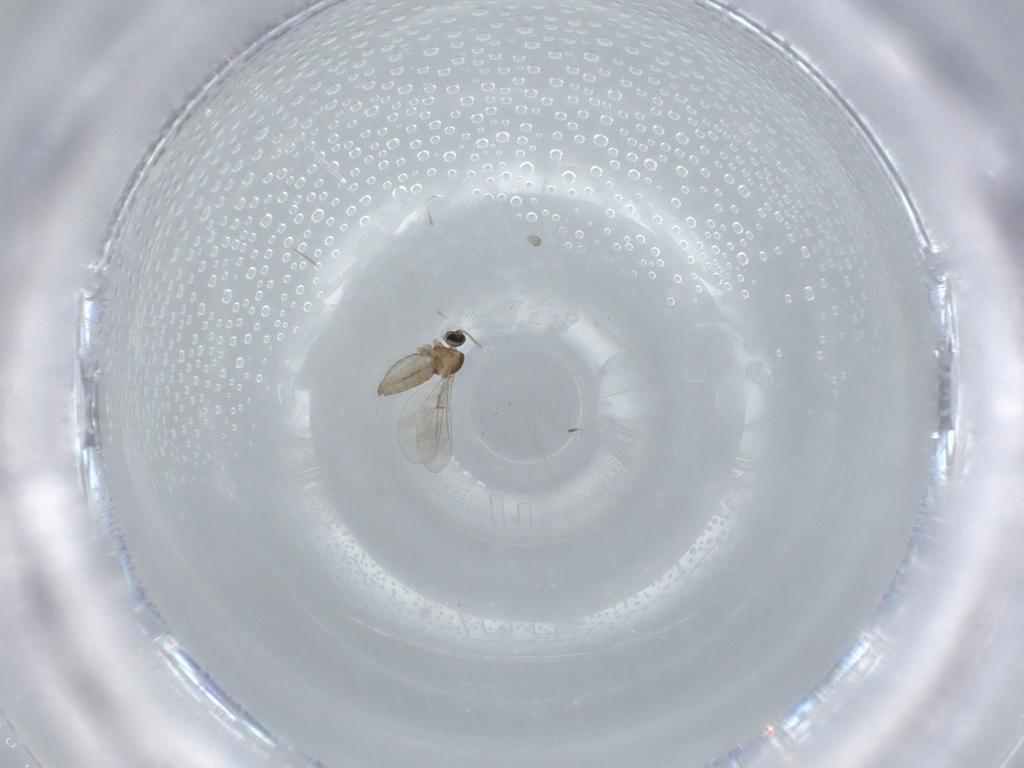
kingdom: Animalia
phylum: Arthropoda
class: Insecta
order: Diptera
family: Cecidomyiidae
